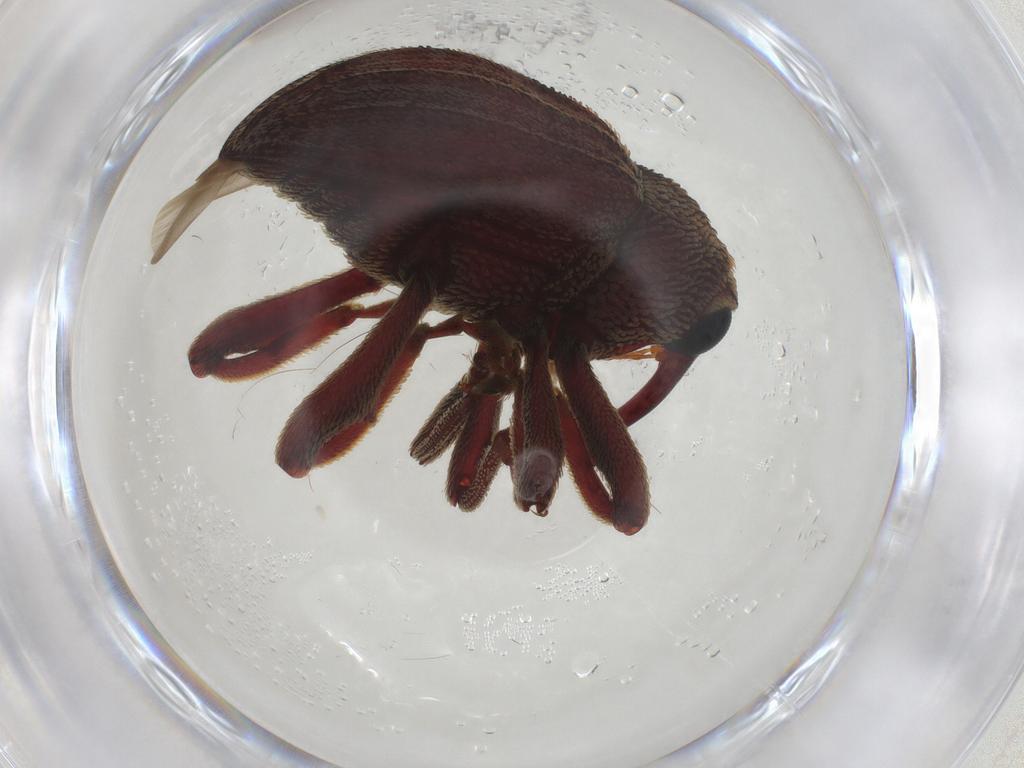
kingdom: Animalia
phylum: Arthropoda
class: Insecta
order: Coleoptera
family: Curculionidae
